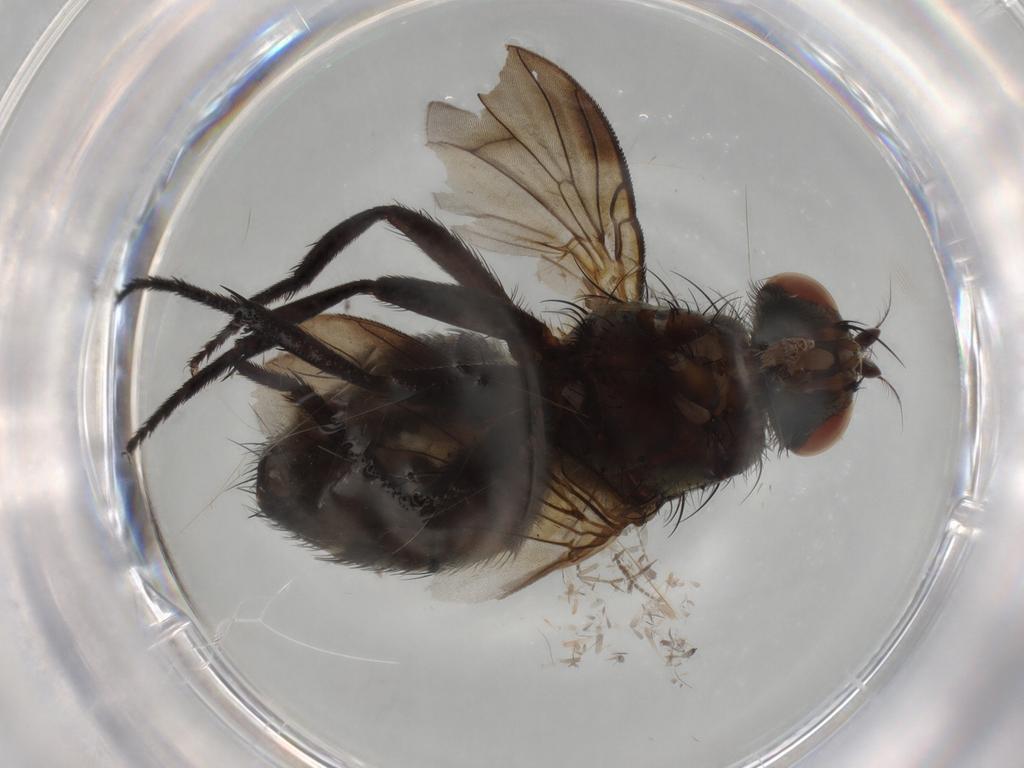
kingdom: Animalia
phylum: Arthropoda
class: Insecta
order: Diptera
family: Sarcophagidae
